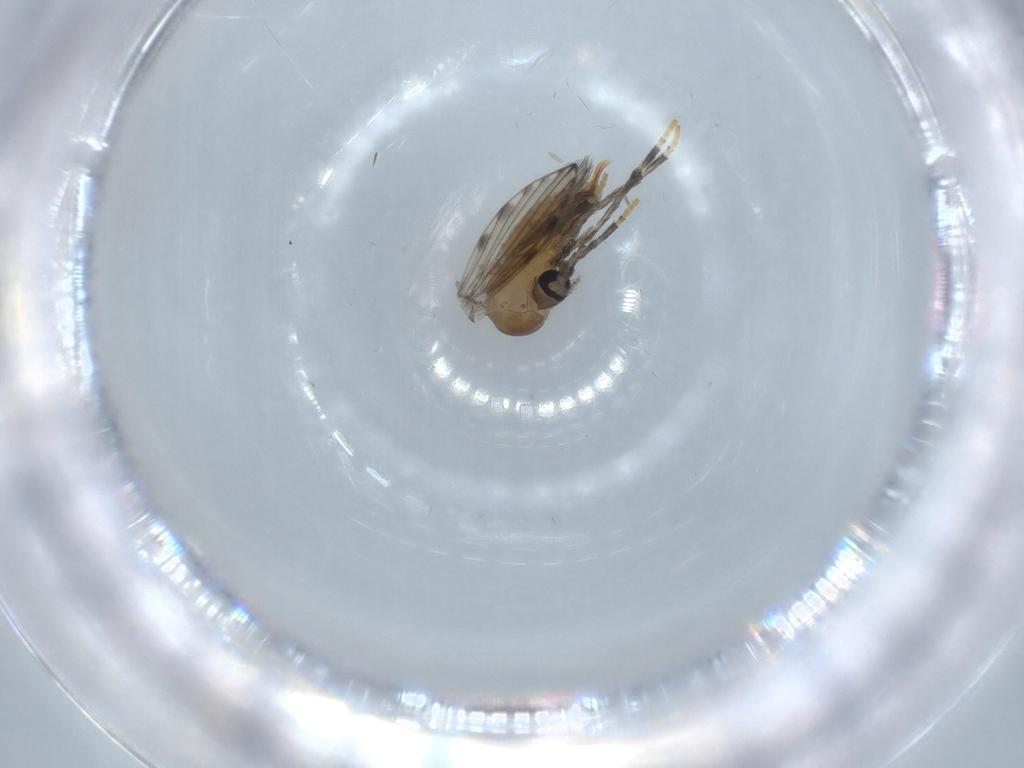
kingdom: Animalia
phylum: Arthropoda
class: Insecta
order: Diptera
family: Psychodidae
